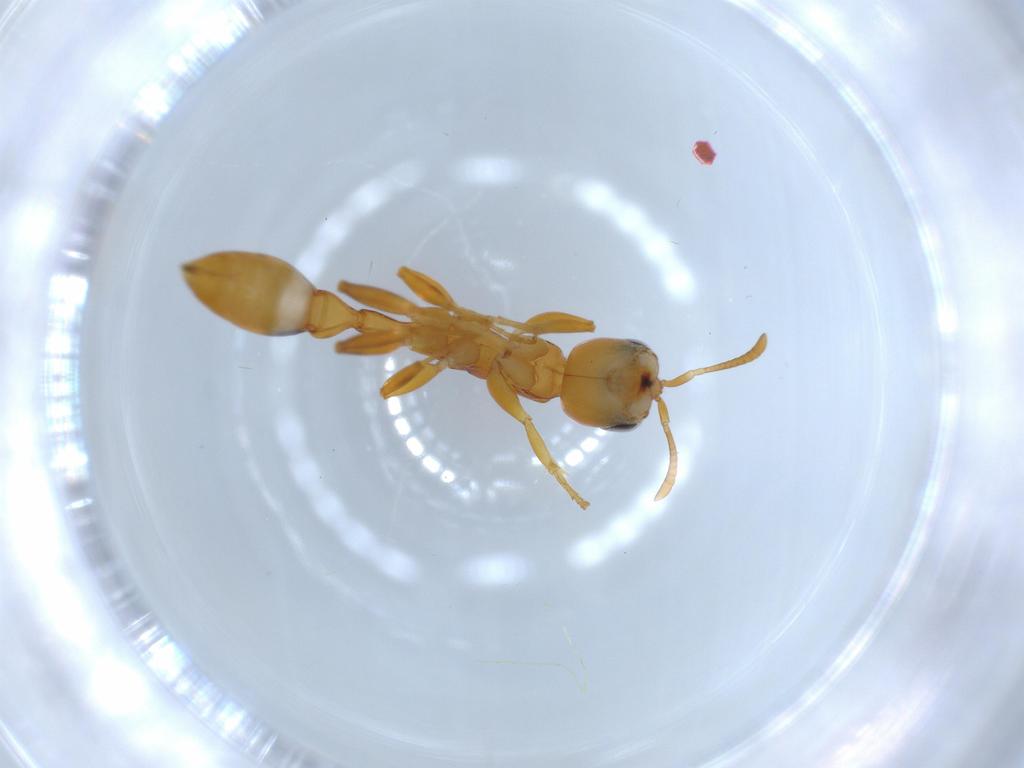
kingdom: Animalia
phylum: Arthropoda
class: Insecta
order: Hymenoptera
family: Formicidae
